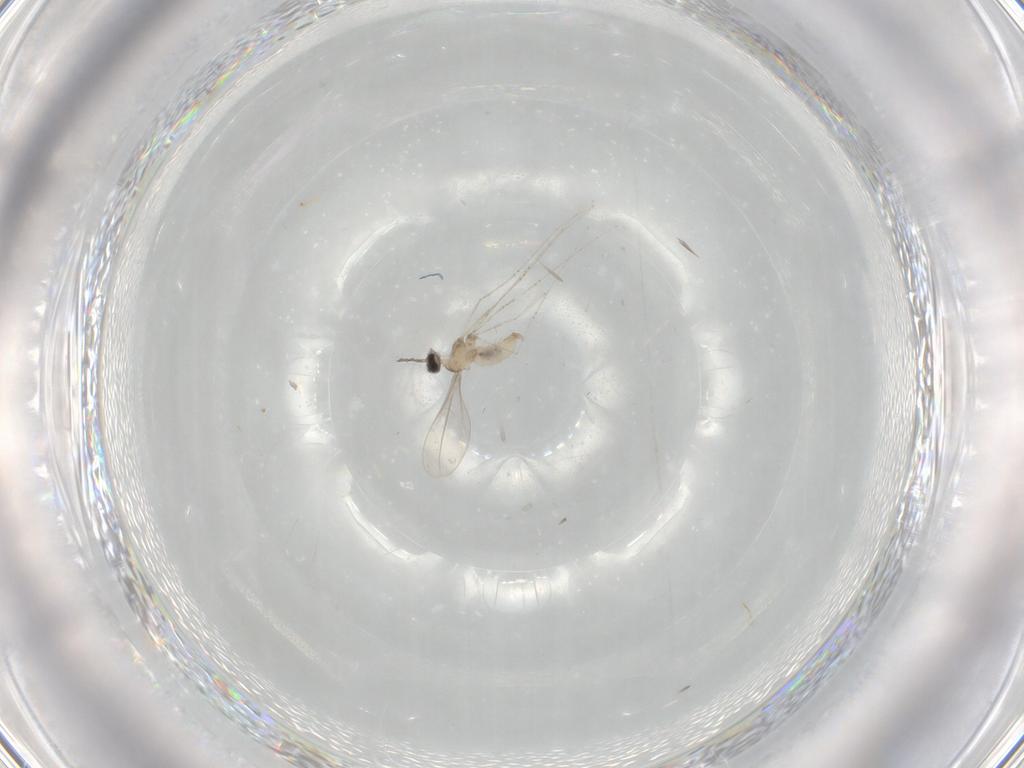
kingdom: Animalia
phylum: Arthropoda
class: Insecta
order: Diptera
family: Cecidomyiidae
